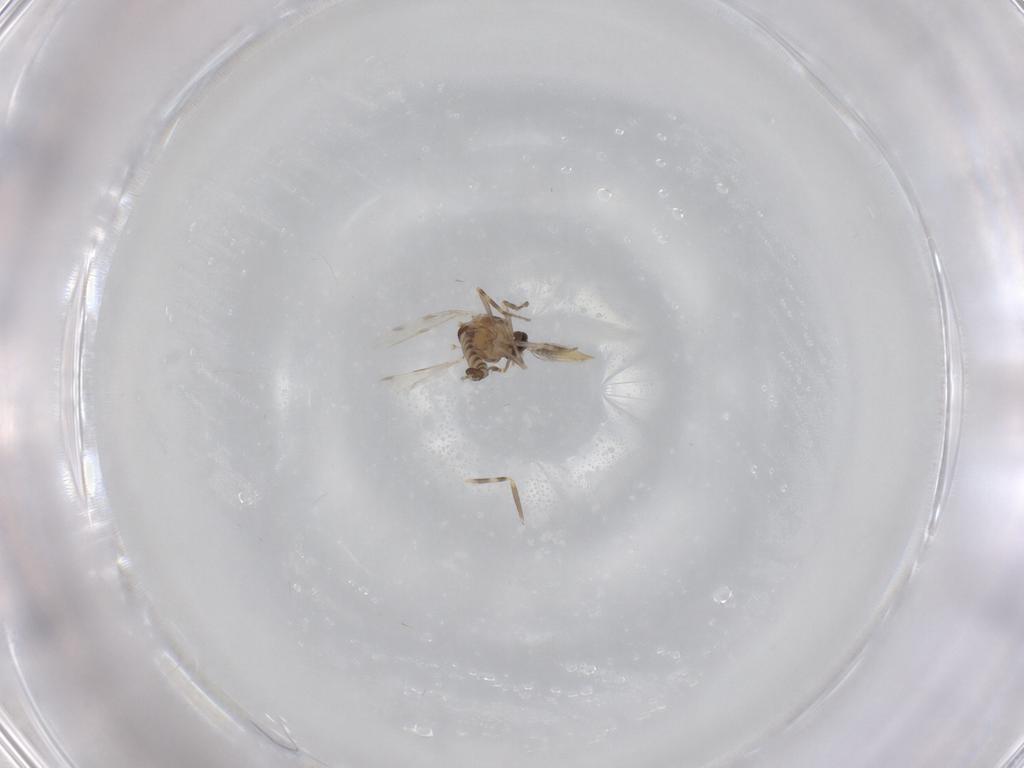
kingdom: Animalia
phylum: Arthropoda
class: Insecta
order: Diptera
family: Ceratopogonidae
